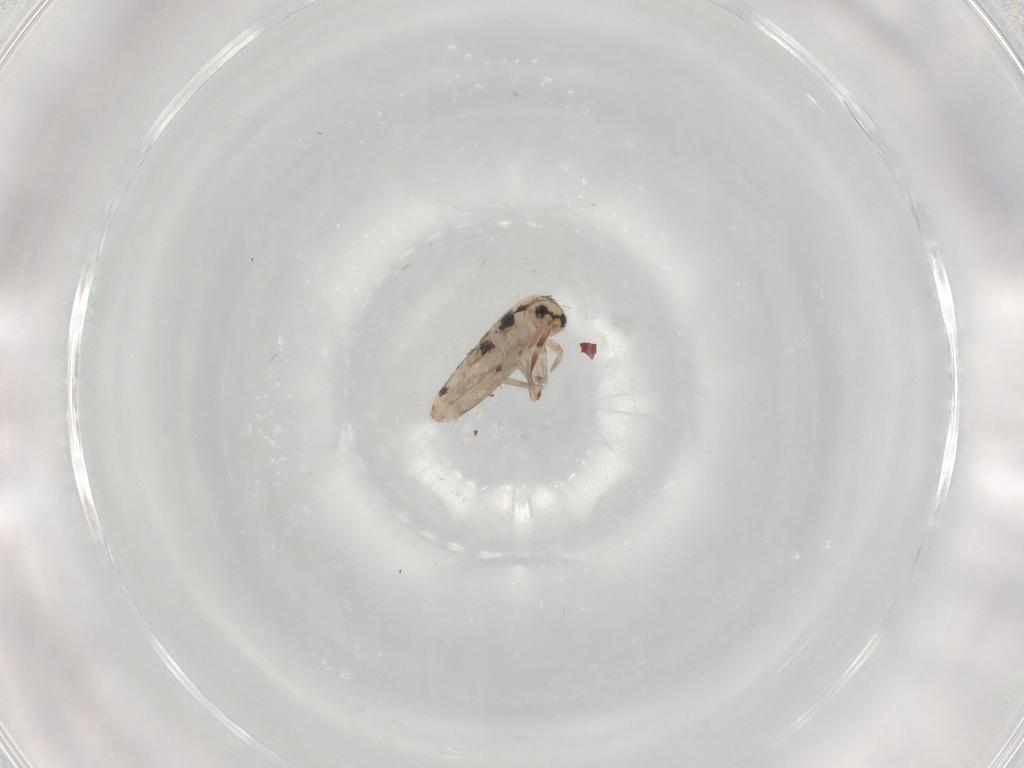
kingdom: Animalia
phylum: Arthropoda
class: Collembola
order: Entomobryomorpha
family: Entomobryidae
